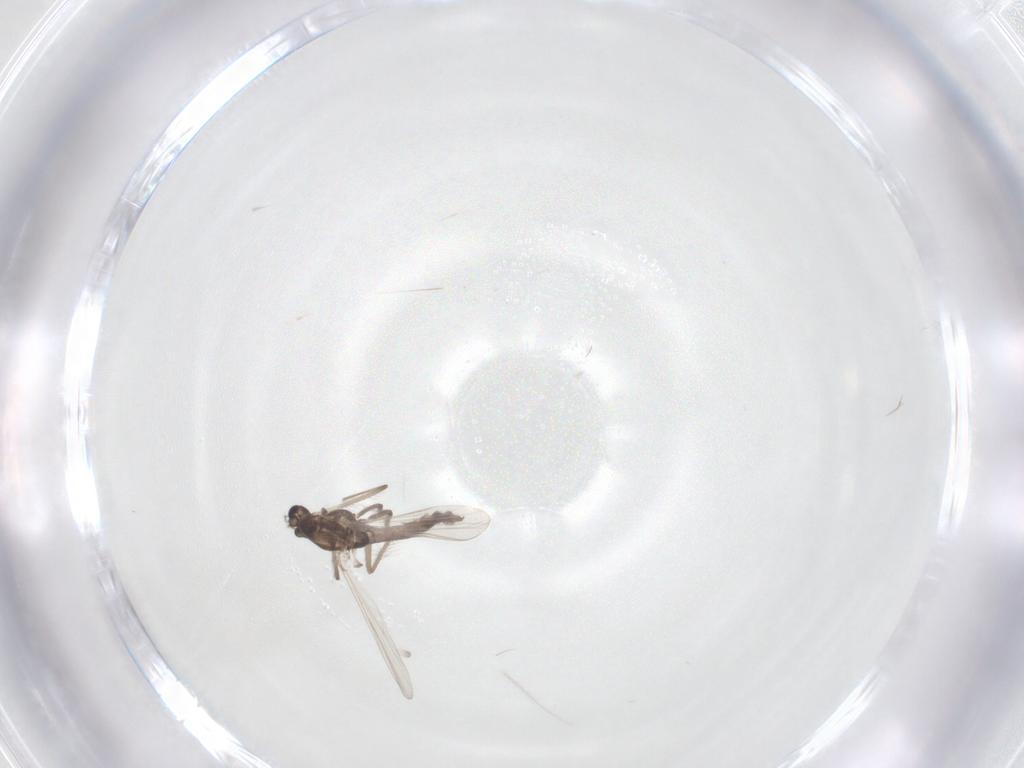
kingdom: Animalia
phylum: Arthropoda
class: Insecta
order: Diptera
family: Chironomidae
